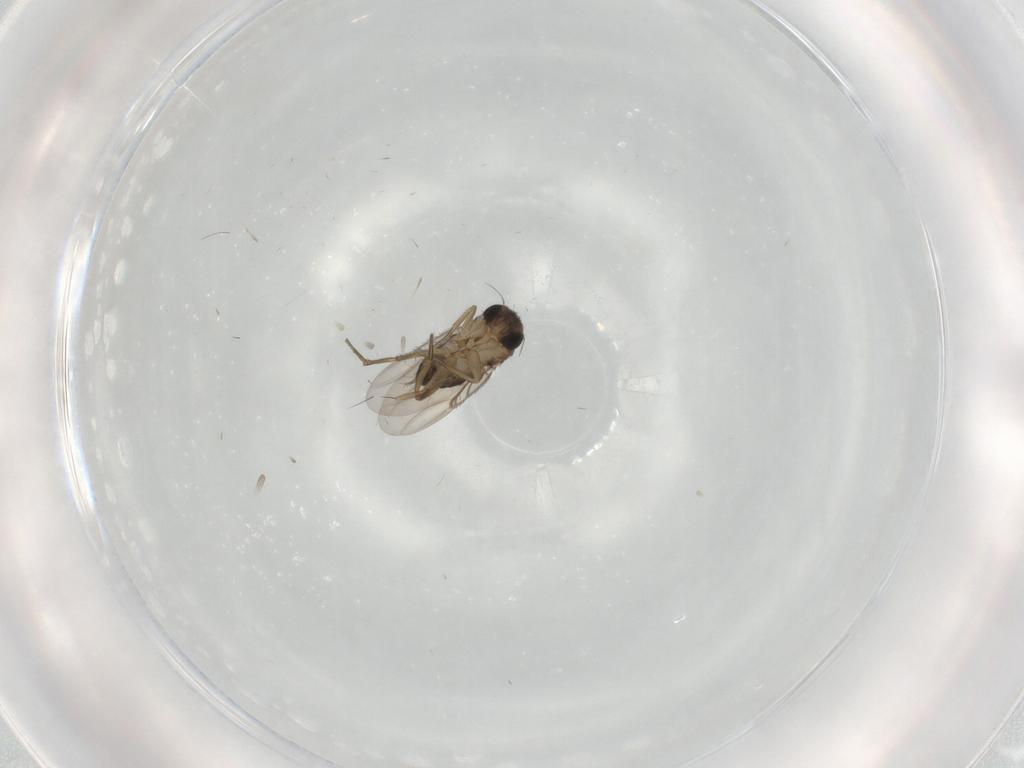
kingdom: Animalia
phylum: Arthropoda
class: Insecta
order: Diptera
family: Phoridae
